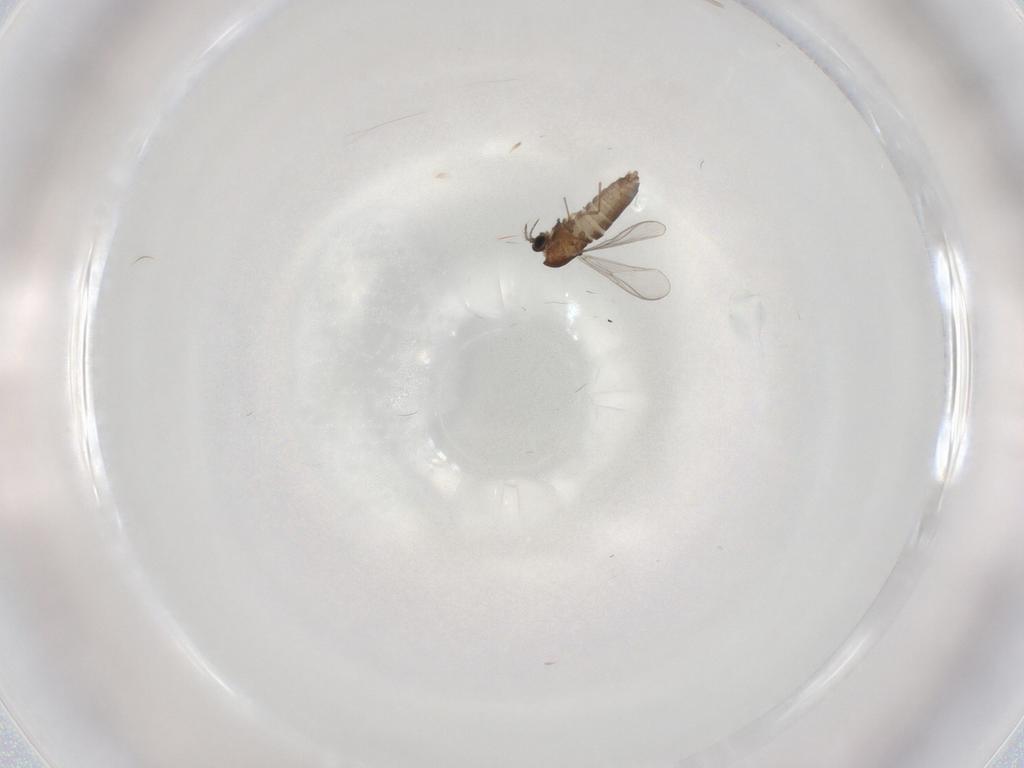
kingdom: Animalia
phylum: Arthropoda
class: Insecta
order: Diptera
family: Chironomidae
